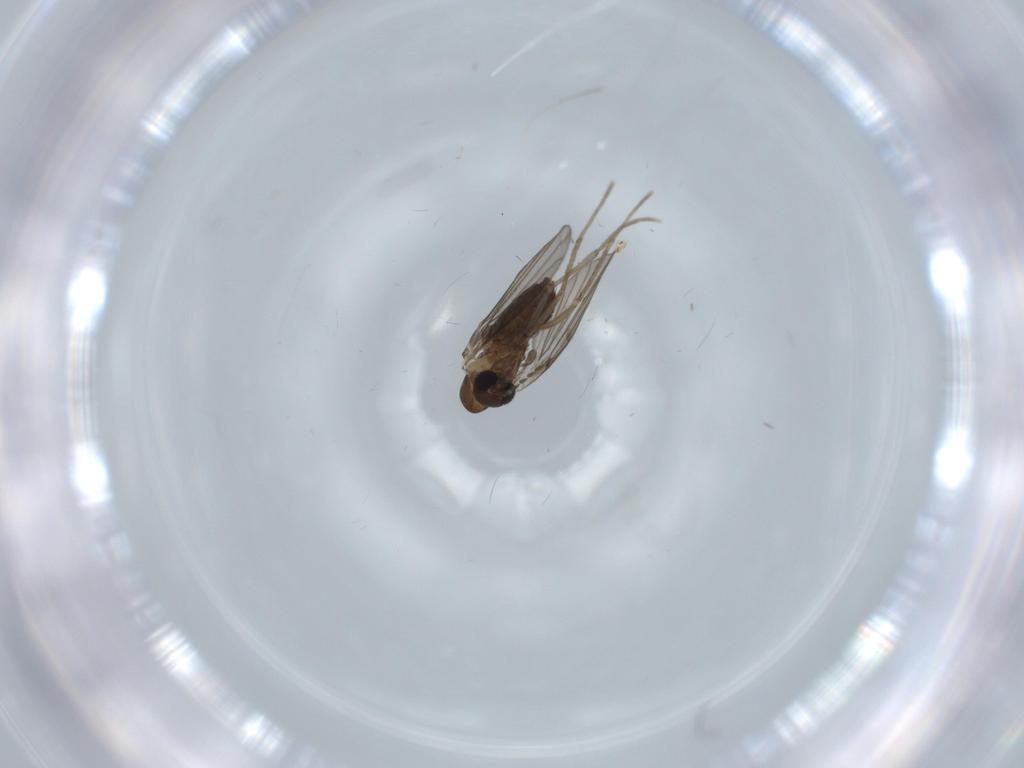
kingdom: Animalia
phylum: Arthropoda
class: Insecta
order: Diptera
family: Psychodidae
